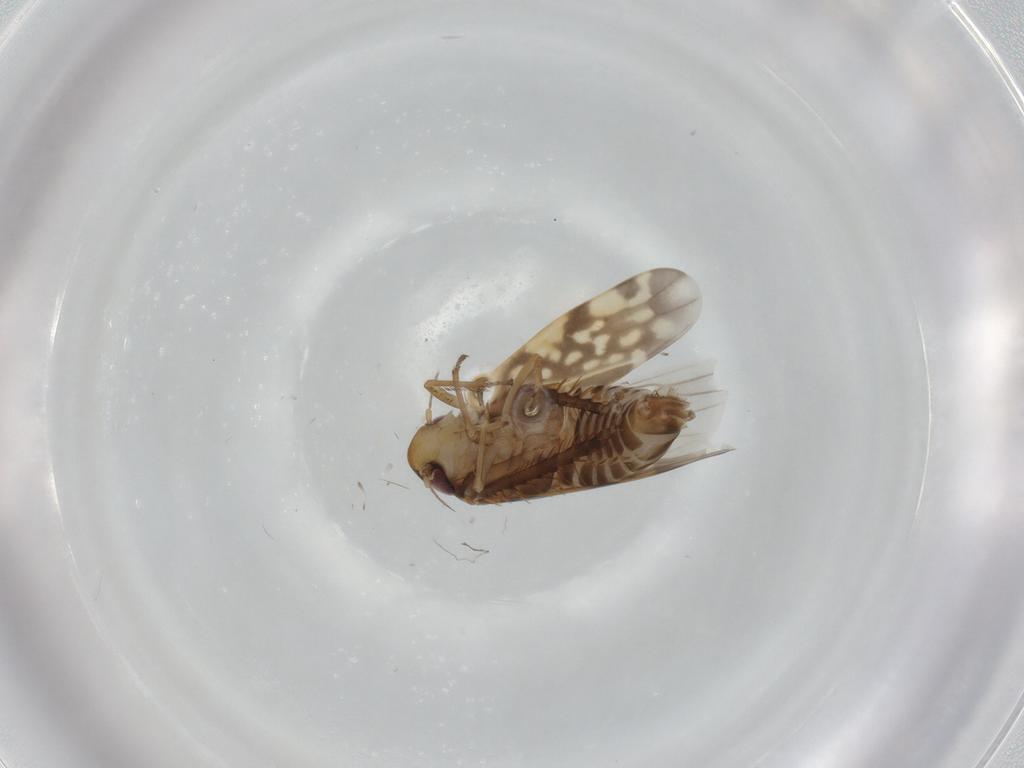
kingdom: Animalia
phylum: Arthropoda
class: Insecta
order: Hemiptera
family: Cicadellidae
